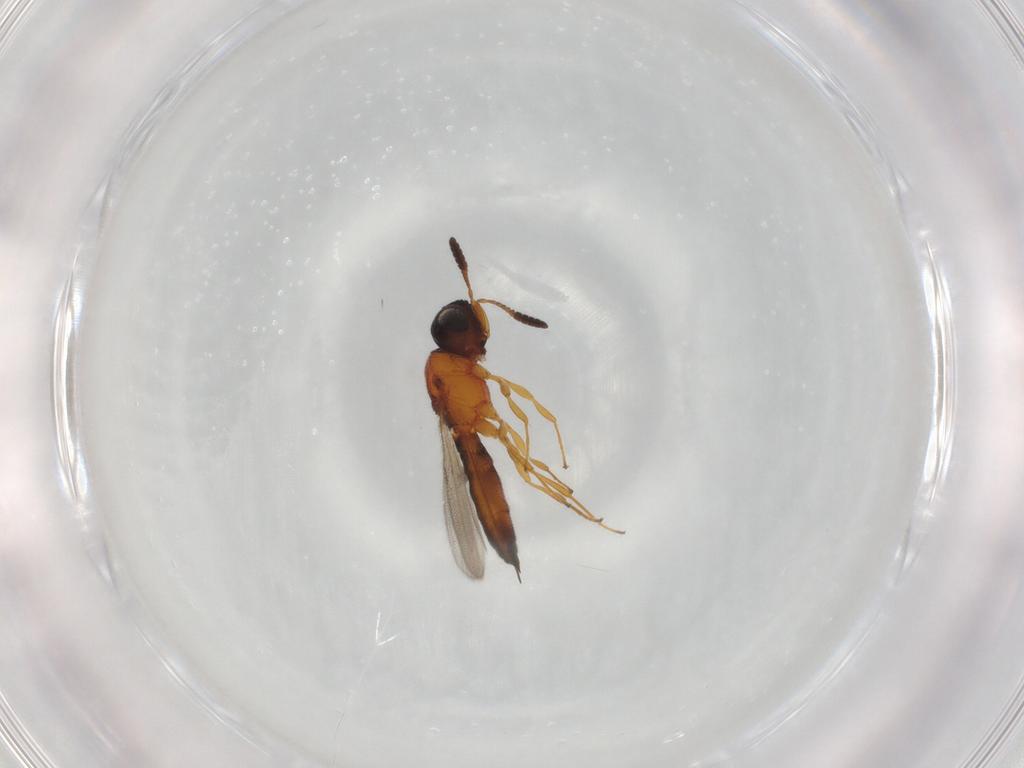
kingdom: Animalia
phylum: Arthropoda
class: Insecta
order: Hymenoptera
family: Scelionidae
